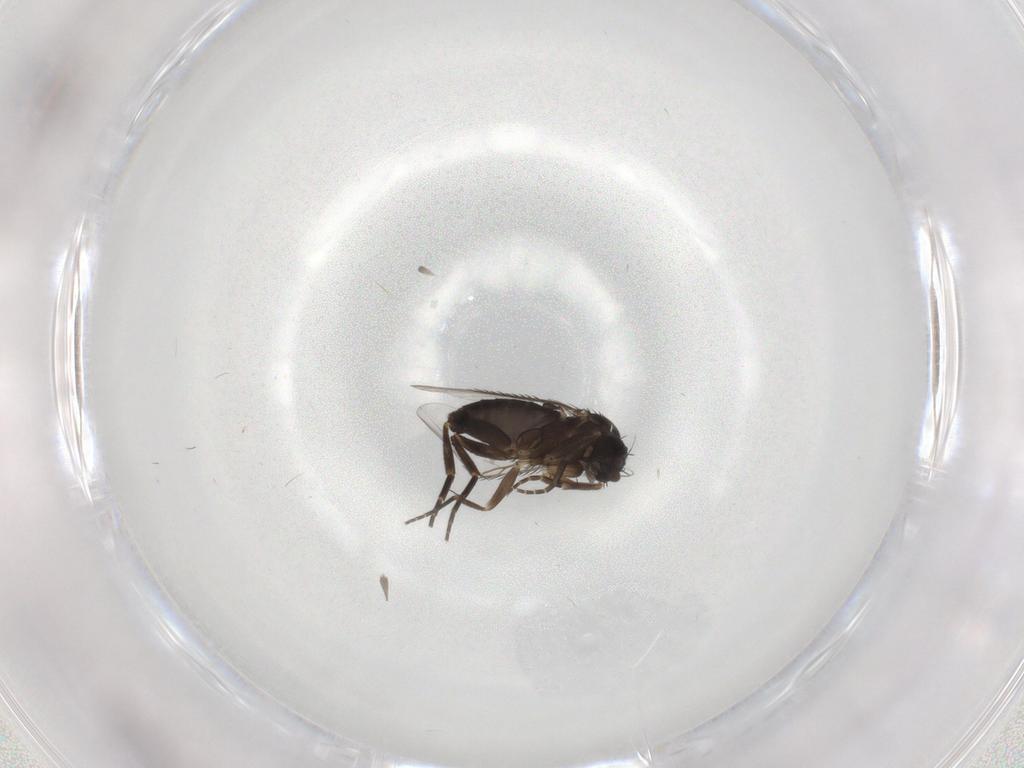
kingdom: Animalia
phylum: Arthropoda
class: Insecta
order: Diptera
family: Phoridae
